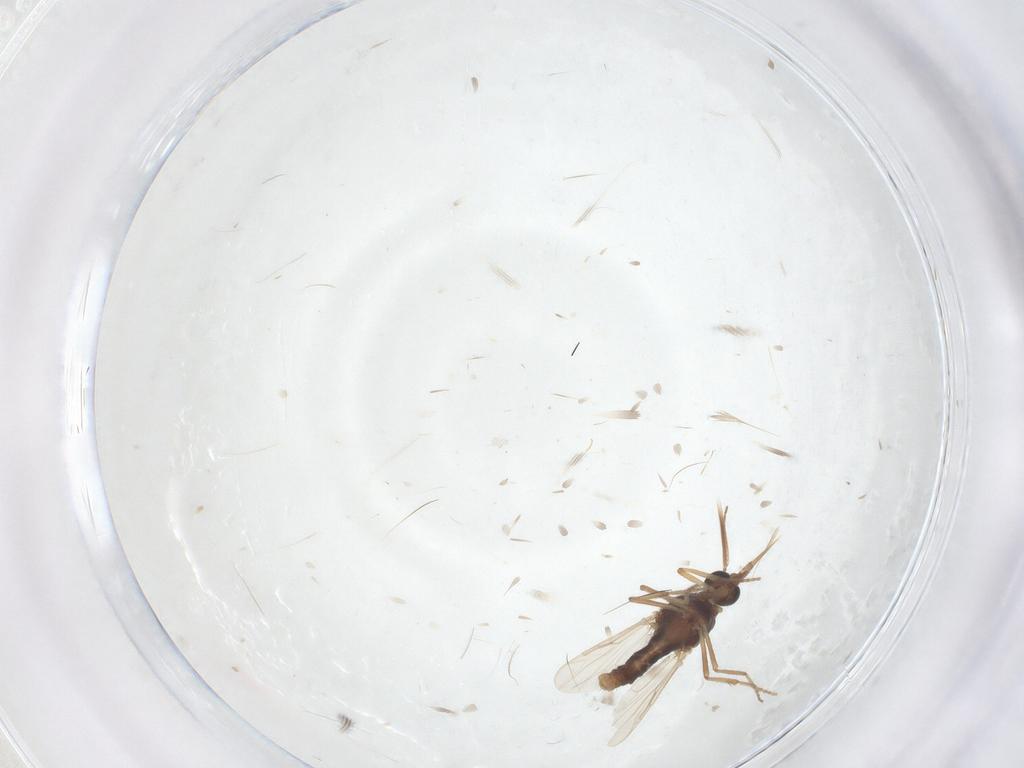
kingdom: Animalia
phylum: Arthropoda
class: Insecta
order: Diptera
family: Ceratopogonidae
